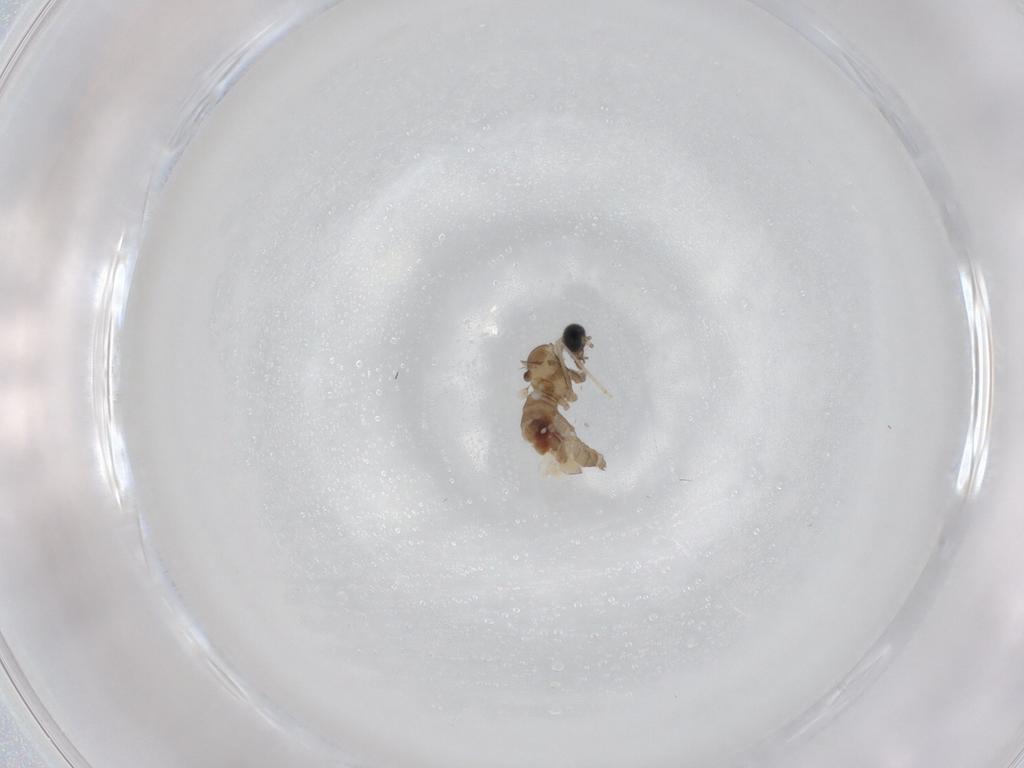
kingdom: Animalia
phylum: Arthropoda
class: Insecta
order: Diptera
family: Cecidomyiidae
